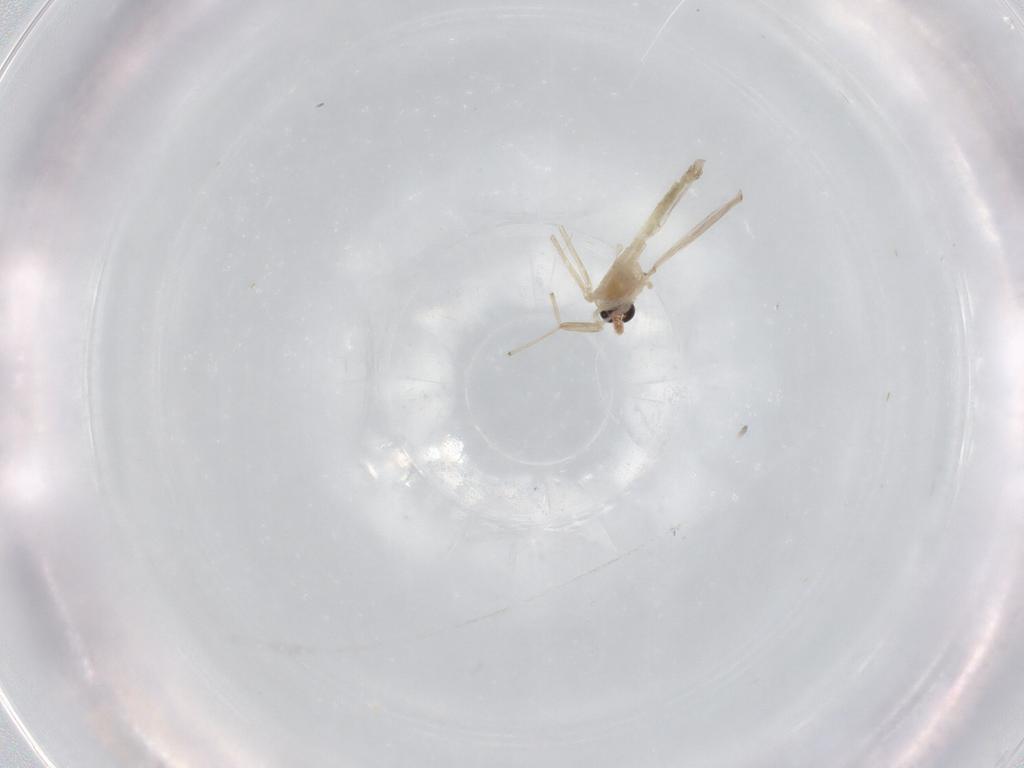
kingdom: Animalia
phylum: Arthropoda
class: Insecta
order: Diptera
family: Chironomidae
